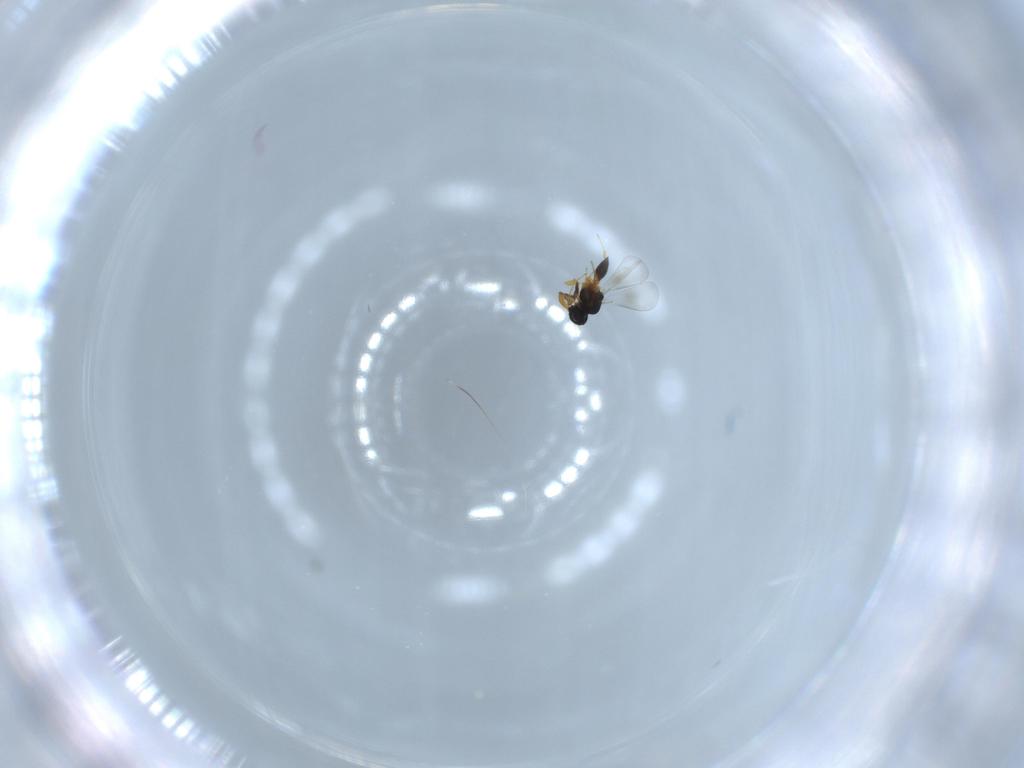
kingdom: Animalia
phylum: Arthropoda
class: Insecta
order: Hymenoptera
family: Platygastridae
